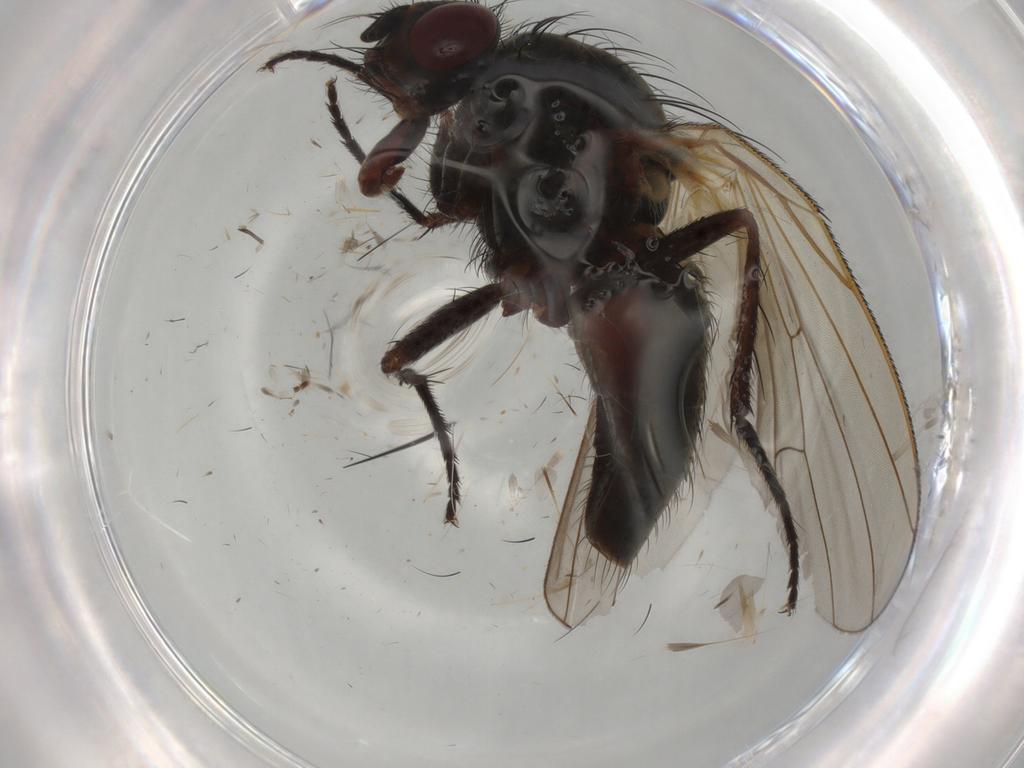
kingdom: Animalia
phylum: Arthropoda
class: Insecta
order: Diptera
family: Anthomyiidae
